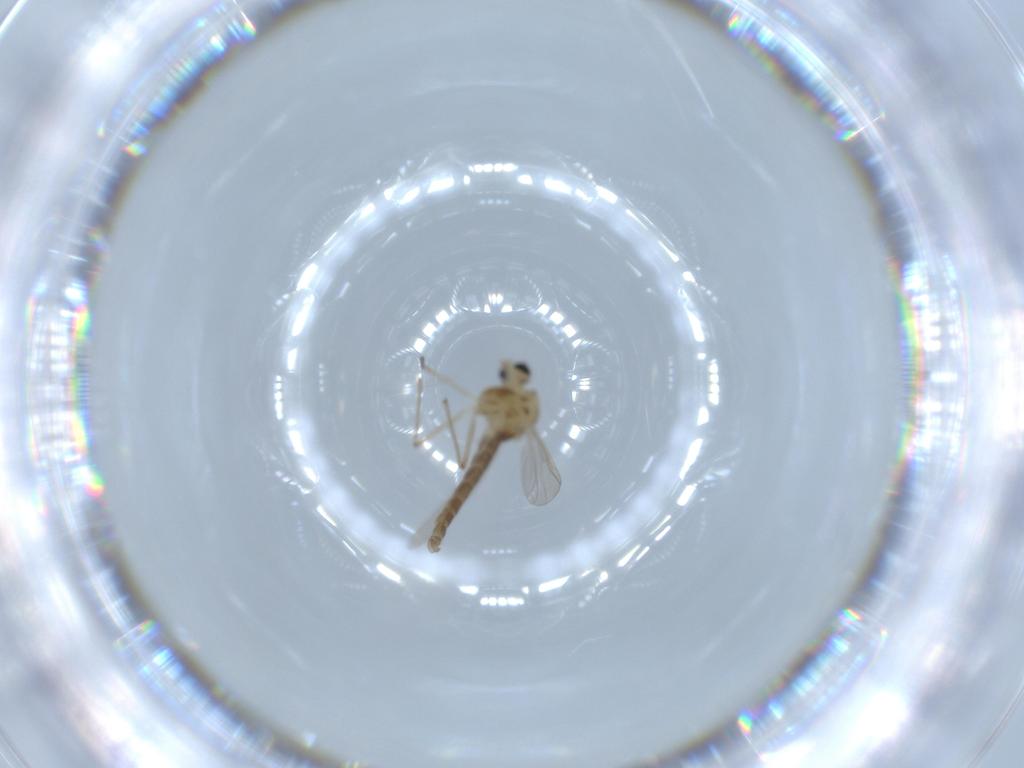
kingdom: Animalia
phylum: Arthropoda
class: Insecta
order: Diptera
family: Chironomidae
